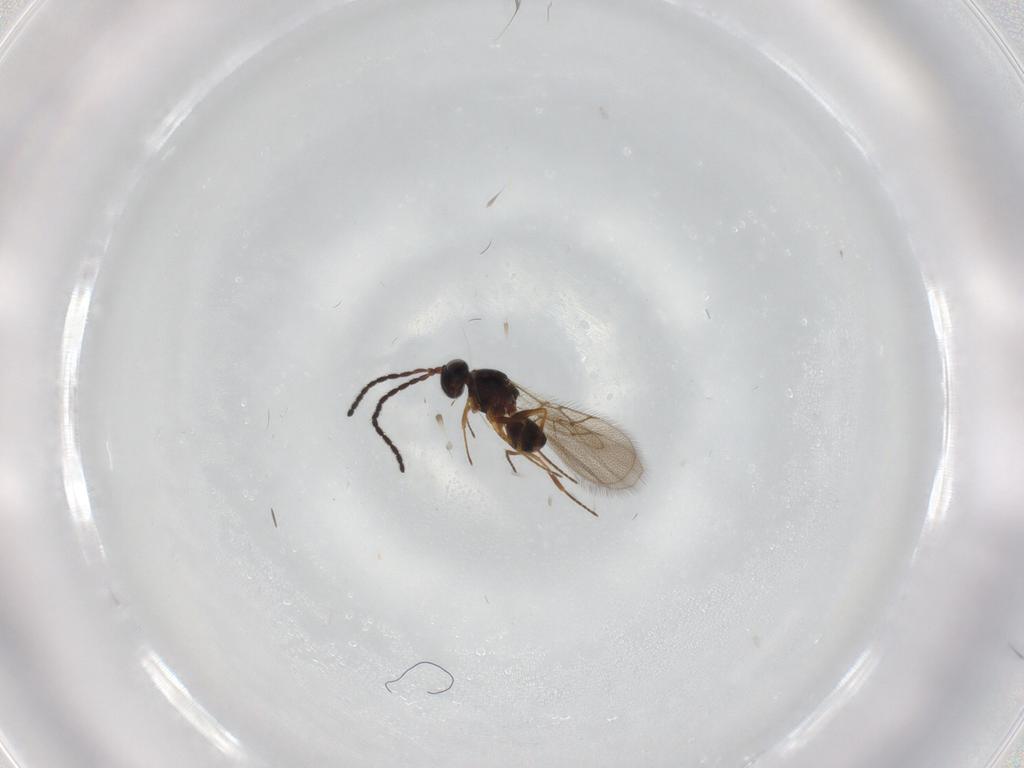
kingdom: Animalia
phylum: Arthropoda
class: Insecta
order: Hymenoptera
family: Figitidae
